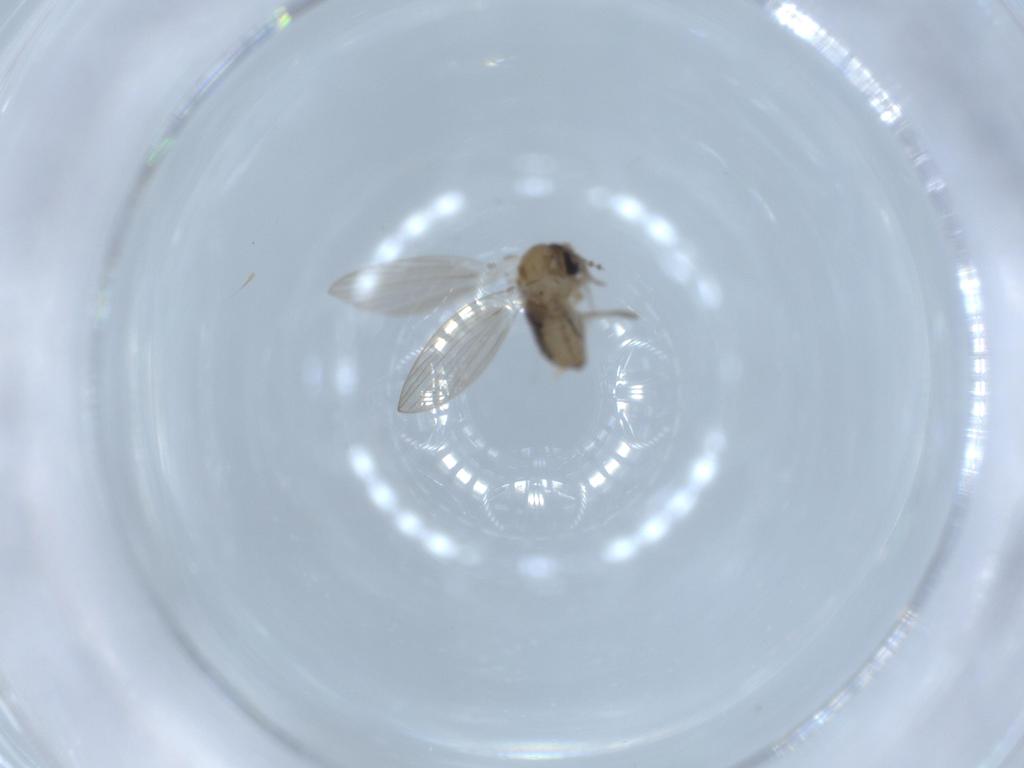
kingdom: Animalia
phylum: Arthropoda
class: Insecta
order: Diptera
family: Psychodidae
